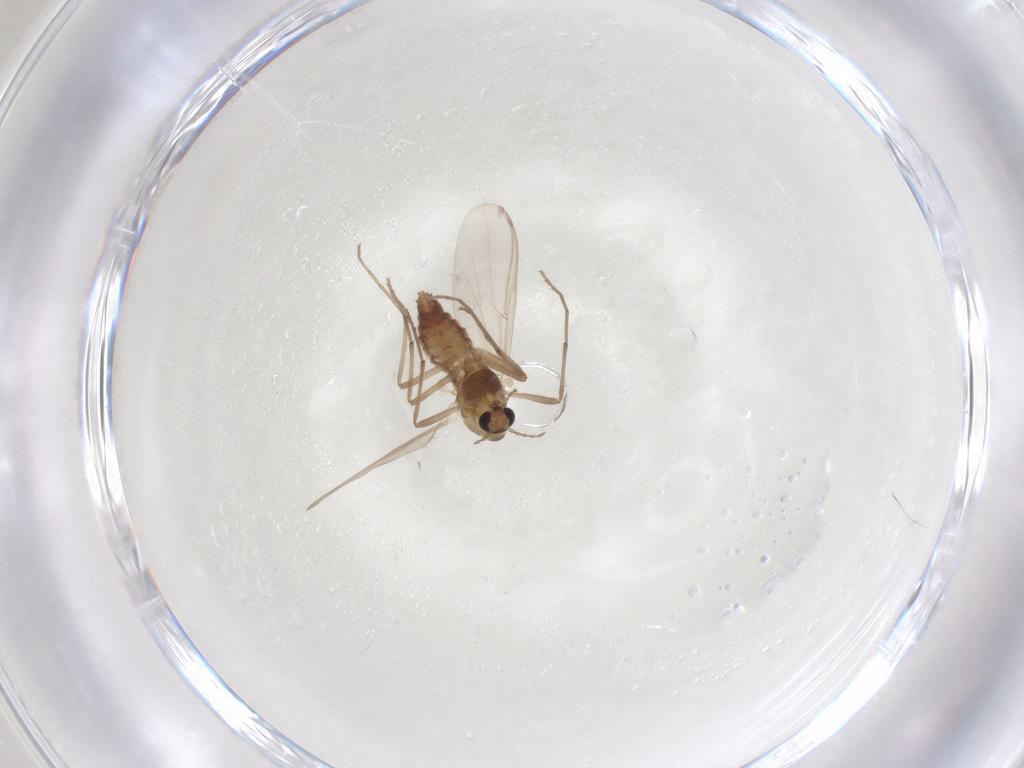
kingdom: Animalia
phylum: Arthropoda
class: Insecta
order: Diptera
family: Chironomidae
